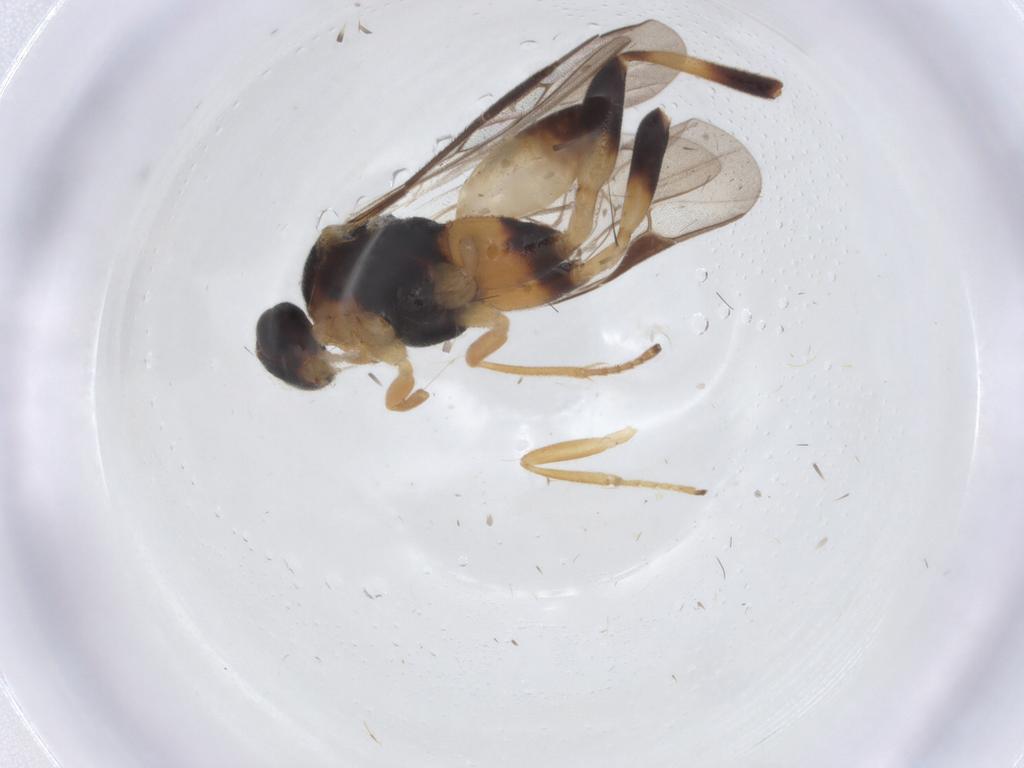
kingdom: Animalia
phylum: Arthropoda
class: Insecta
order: Hymenoptera
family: Braconidae
